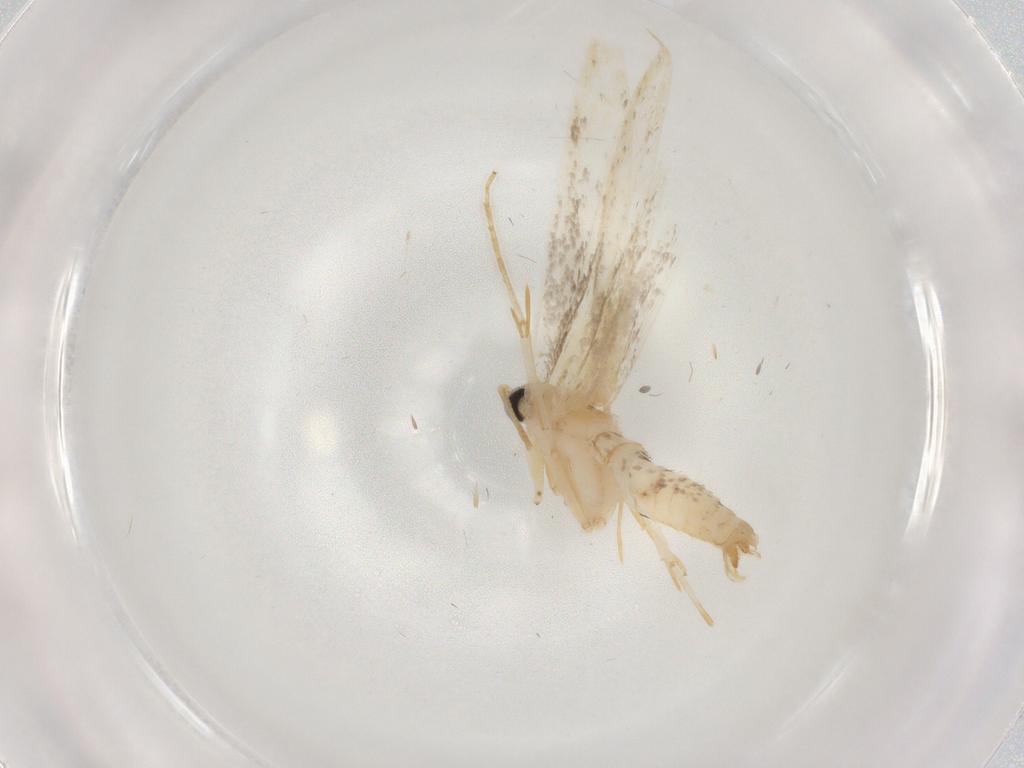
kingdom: Animalia
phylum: Arthropoda
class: Insecta
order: Lepidoptera
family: Tineidae
